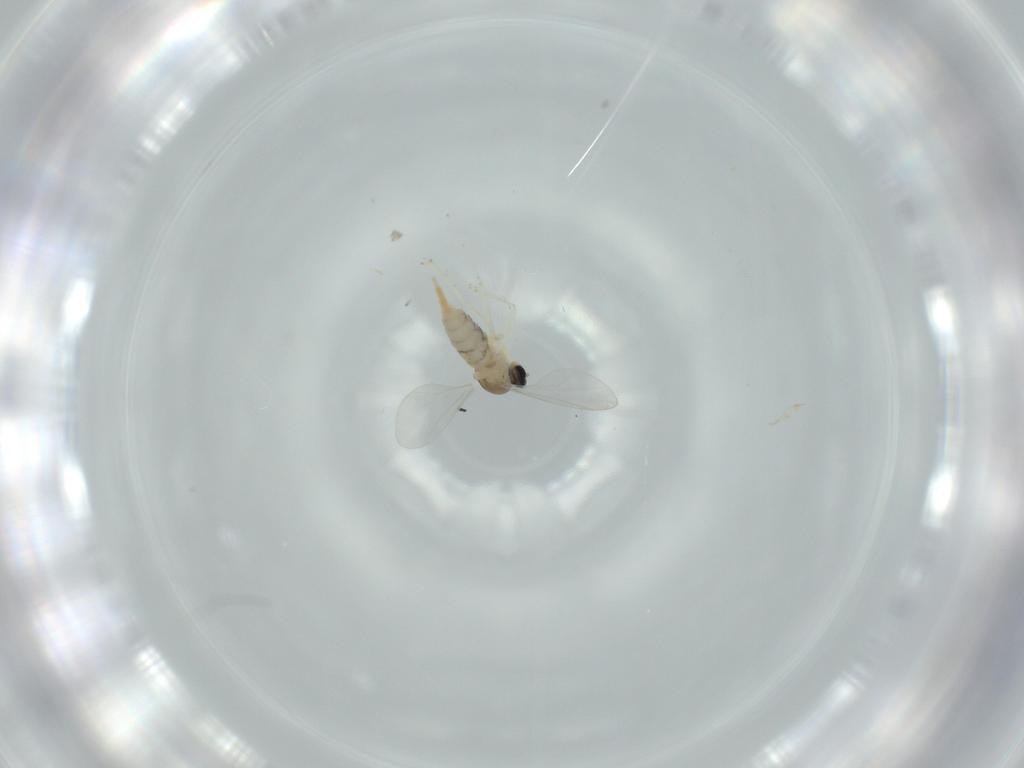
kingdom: Animalia
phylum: Arthropoda
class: Insecta
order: Diptera
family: Cecidomyiidae
